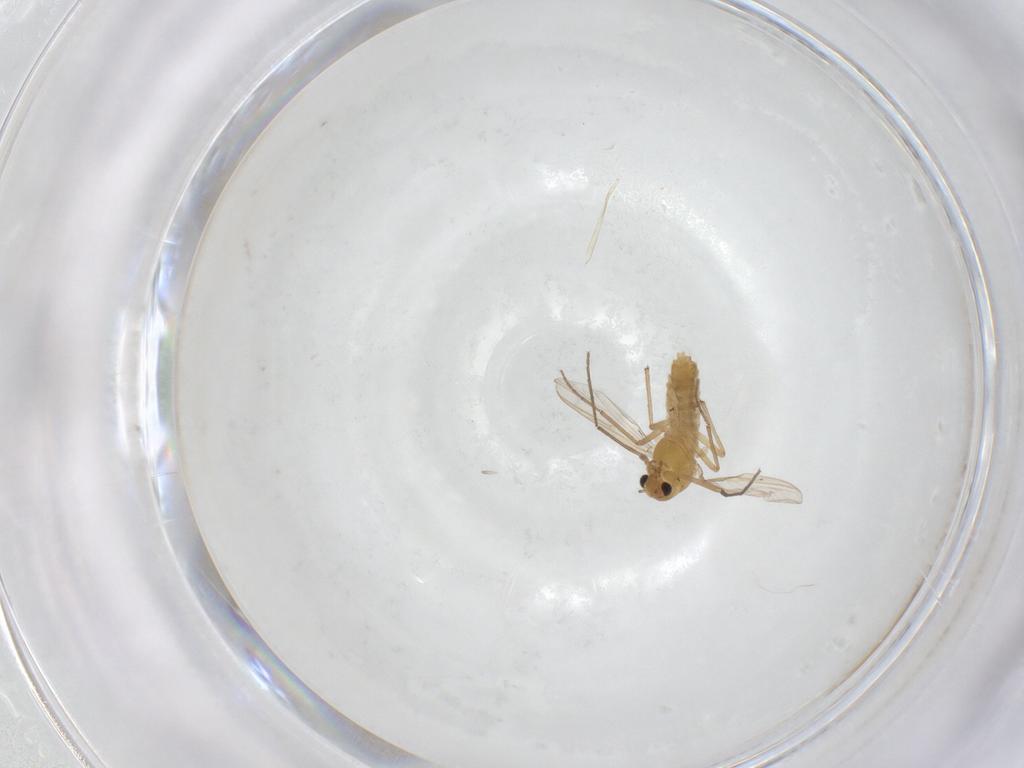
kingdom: Animalia
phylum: Arthropoda
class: Insecta
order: Diptera
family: Chironomidae
